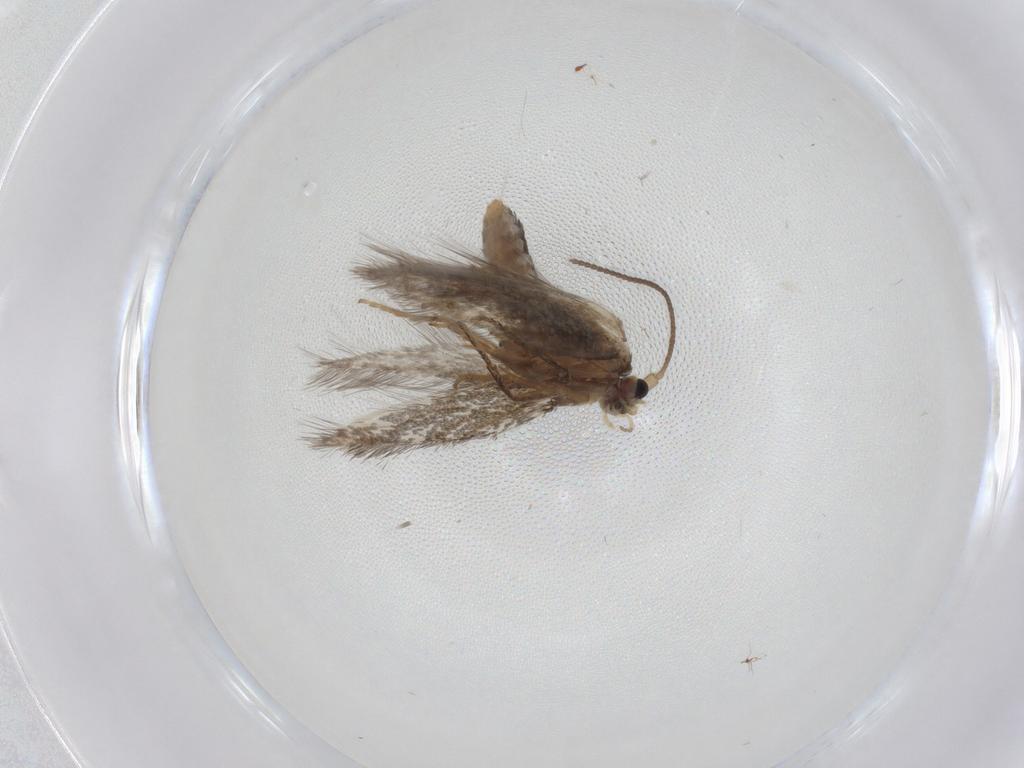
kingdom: Animalia
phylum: Arthropoda
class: Insecta
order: Lepidoptera
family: Nepticulidae
